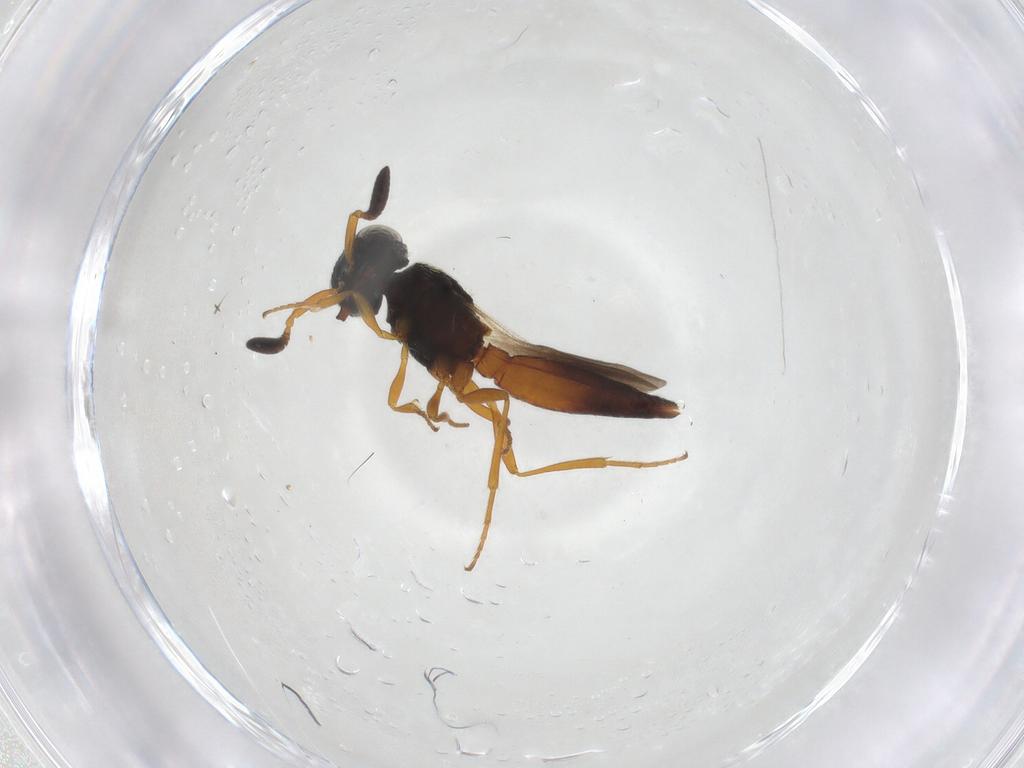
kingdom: Animalia
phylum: Arthropoda
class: Insecta
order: Hymenoptera
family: Scelionidae
